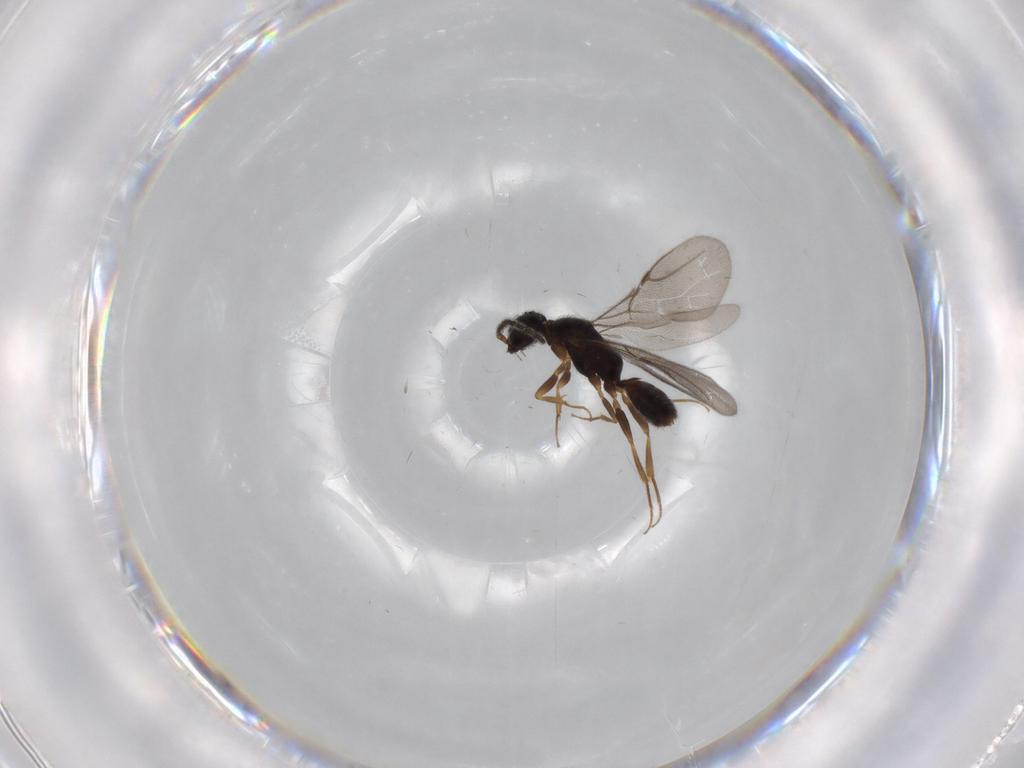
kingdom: Animalia
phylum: Arthropoda
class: Insecta
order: Hymenoptera
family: Bethylidae
